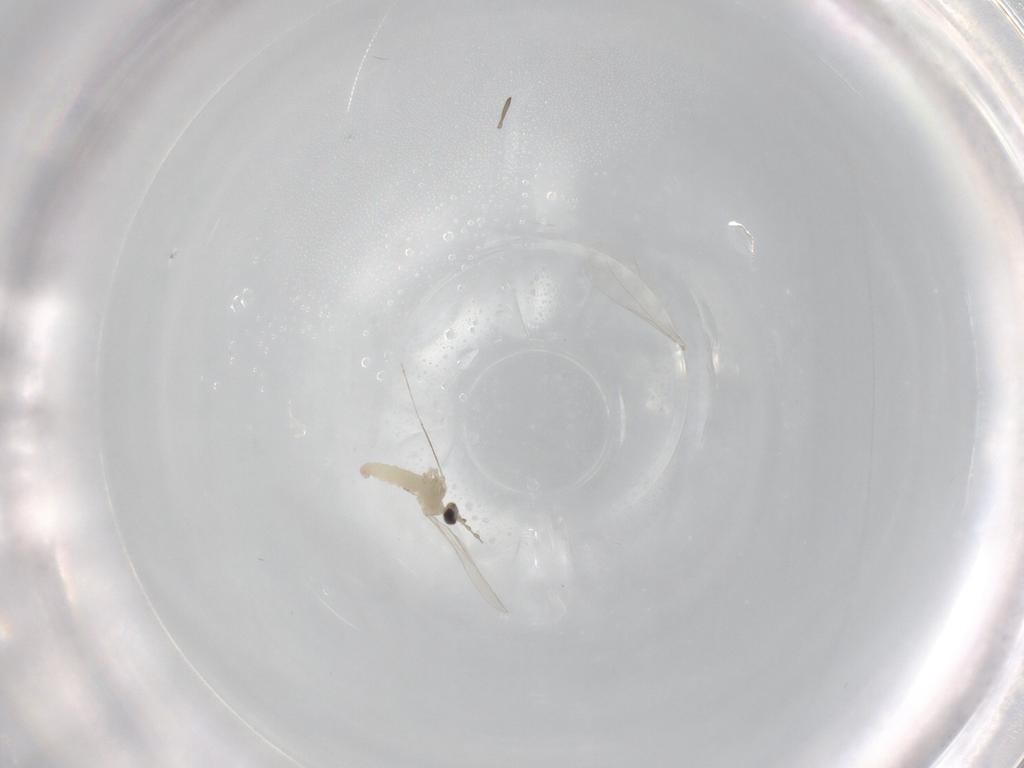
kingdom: Animalia
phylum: Arthropoda
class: Insecta
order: Diptera
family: Cecidomyiidae
